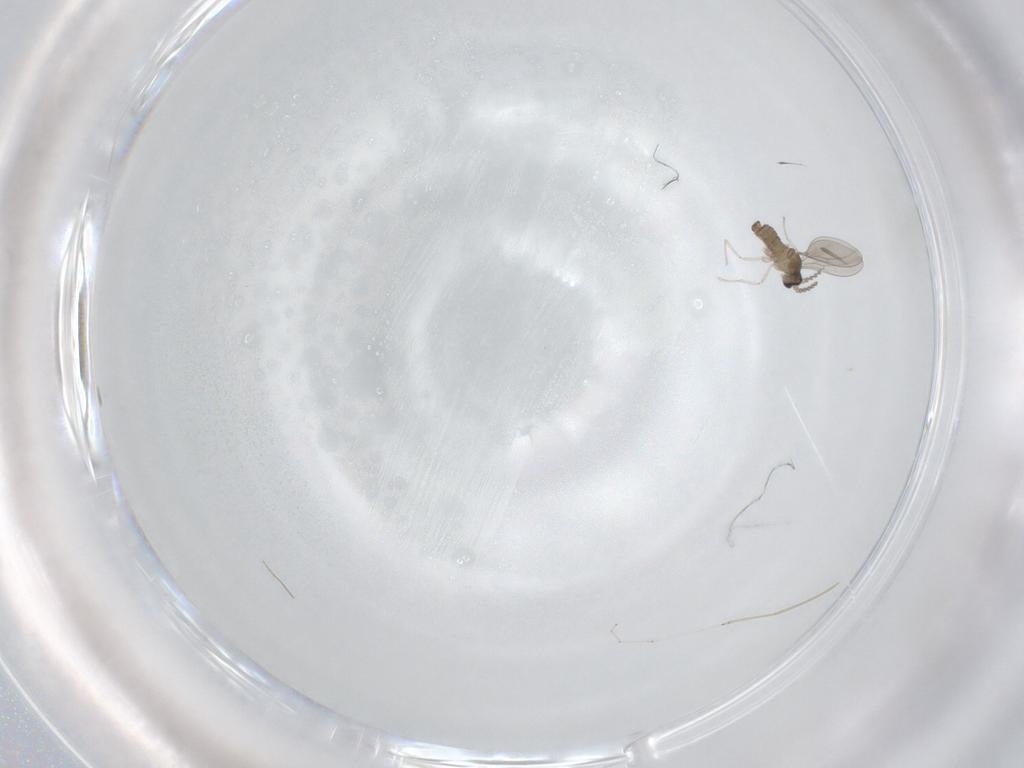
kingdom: Animalia
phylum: Arthropoda
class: Insecta
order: Diptera
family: Cecidomyiidae
